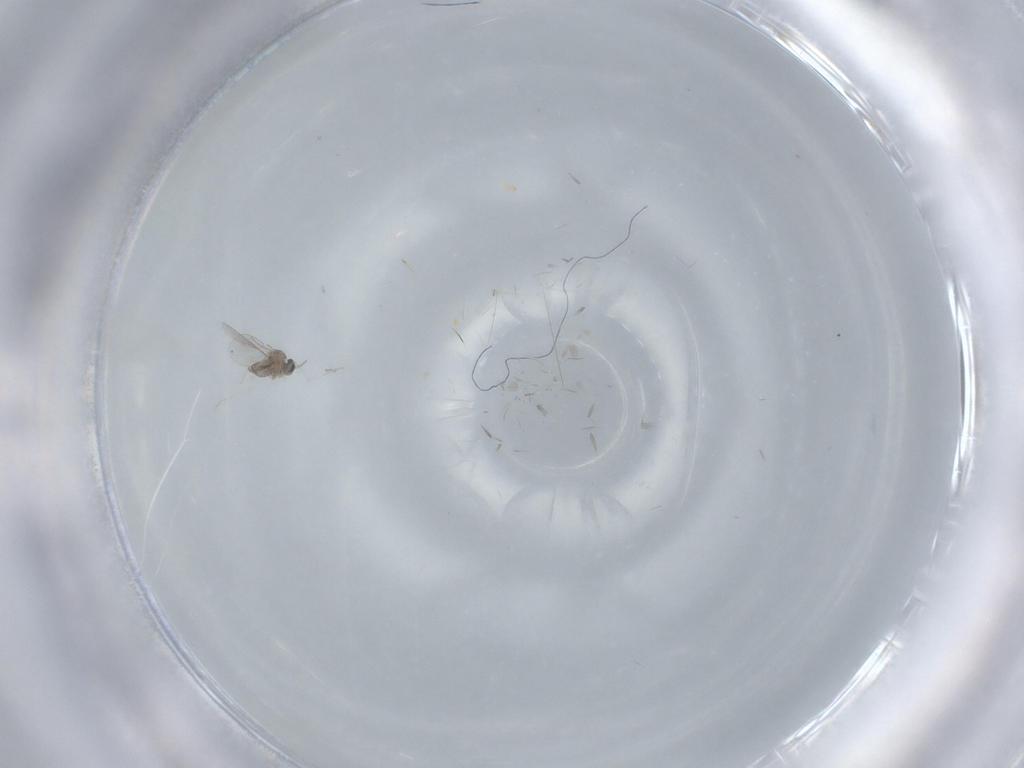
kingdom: Animalia
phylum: Arthropoda
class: Insecta
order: Diptera
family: Cecidomyiidae
